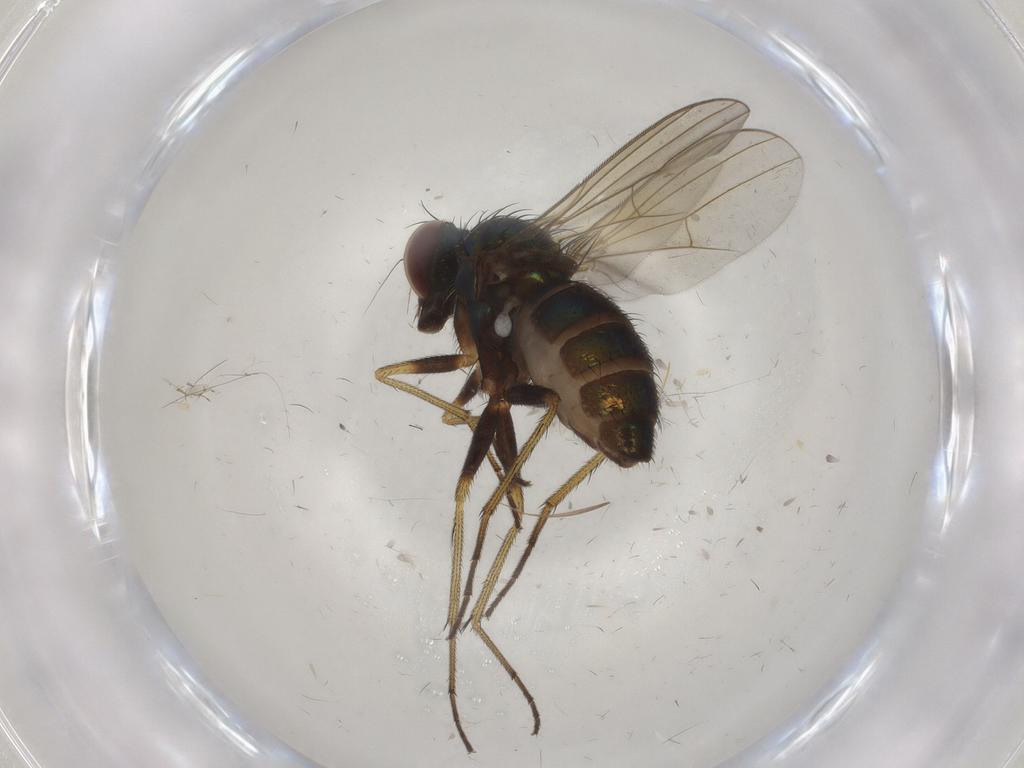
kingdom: Animalia
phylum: Arthropoda
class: Insecta
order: Diptera
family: Dolichopodidae
